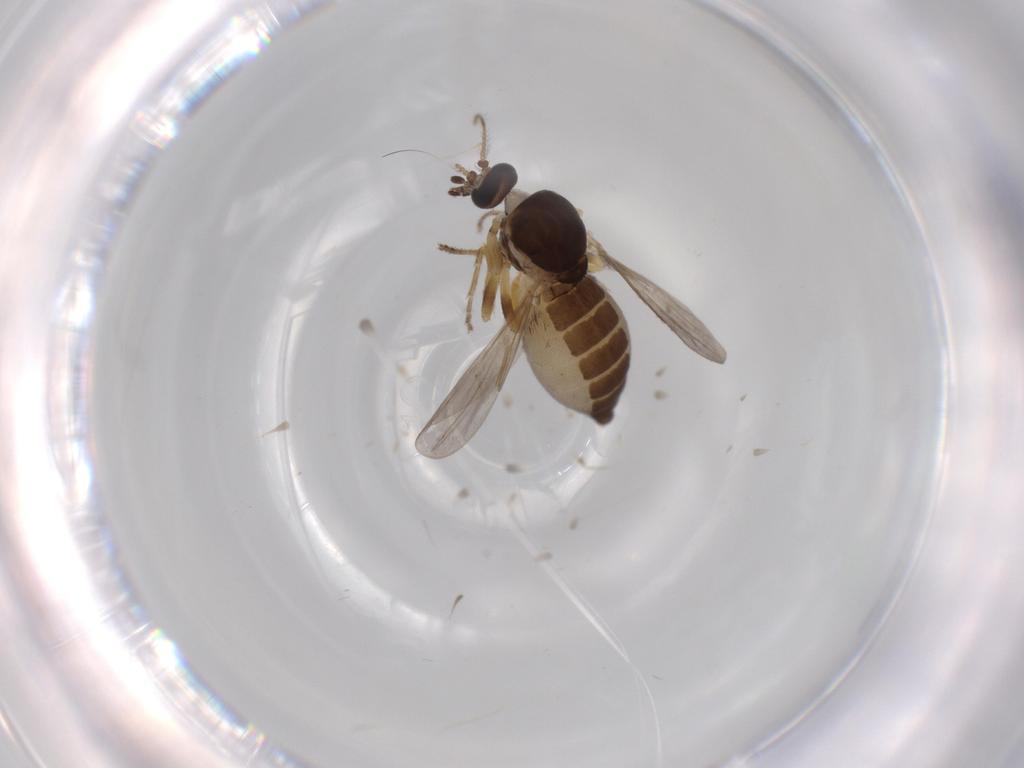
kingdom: Animalia
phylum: Arthropoda
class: Insecta
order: Diptera
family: Ceratopogonidae
